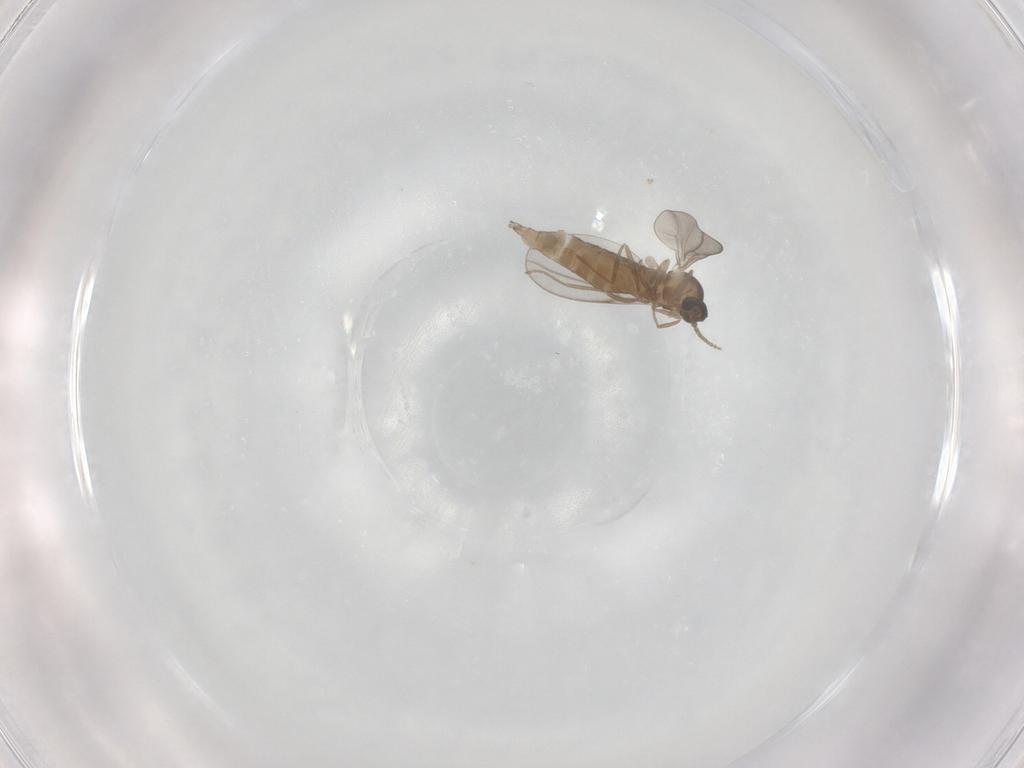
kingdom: Animalia
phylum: Arthropoda
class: Insecta
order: Diptera
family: Cecidomyiidae
